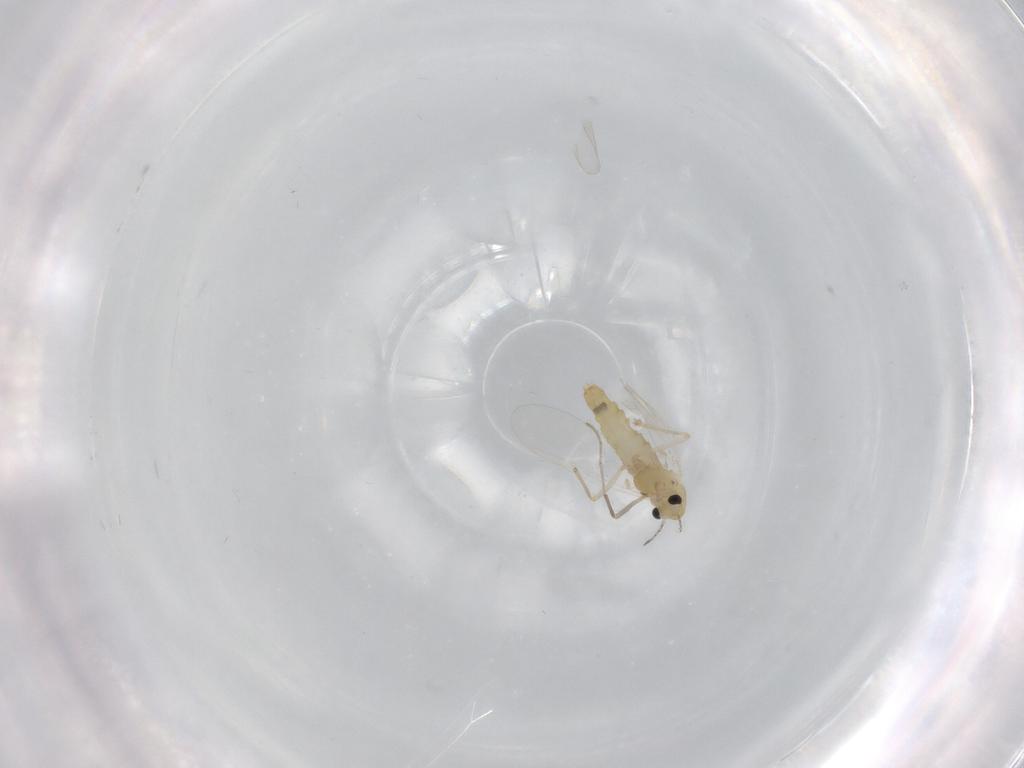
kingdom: Animalia
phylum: Arthropoda
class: Insecta
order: Diptera
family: Chironomidae
